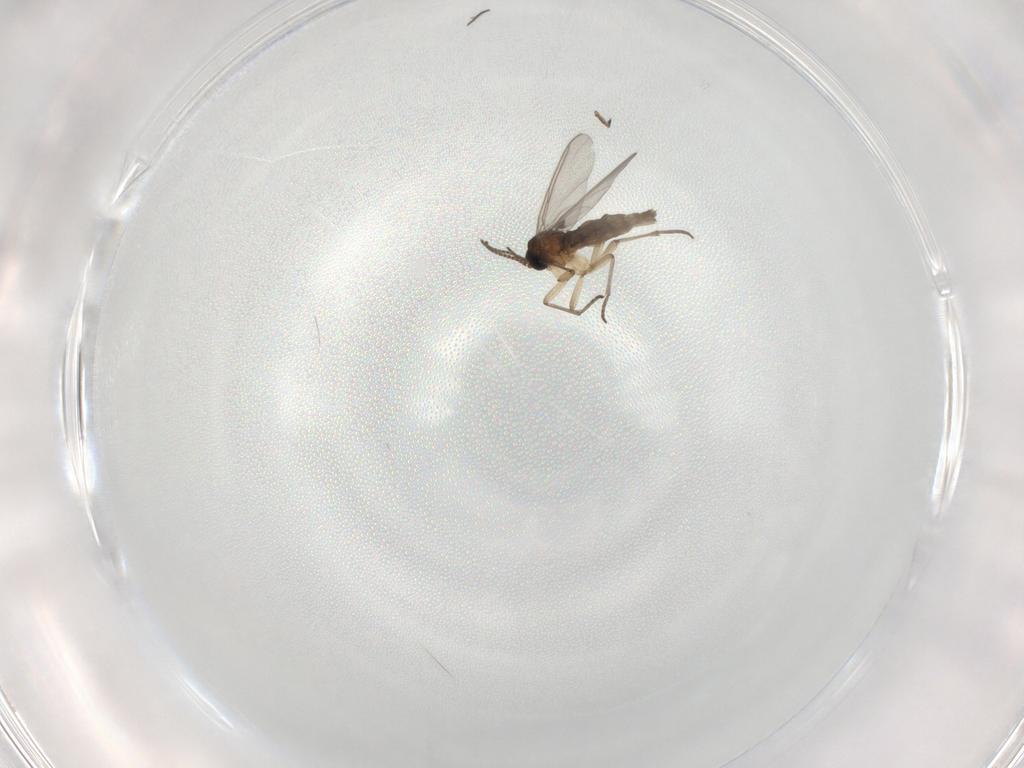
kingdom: Animalia
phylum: Arthropoda
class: Insecta
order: Diptera
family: Sciaridae
